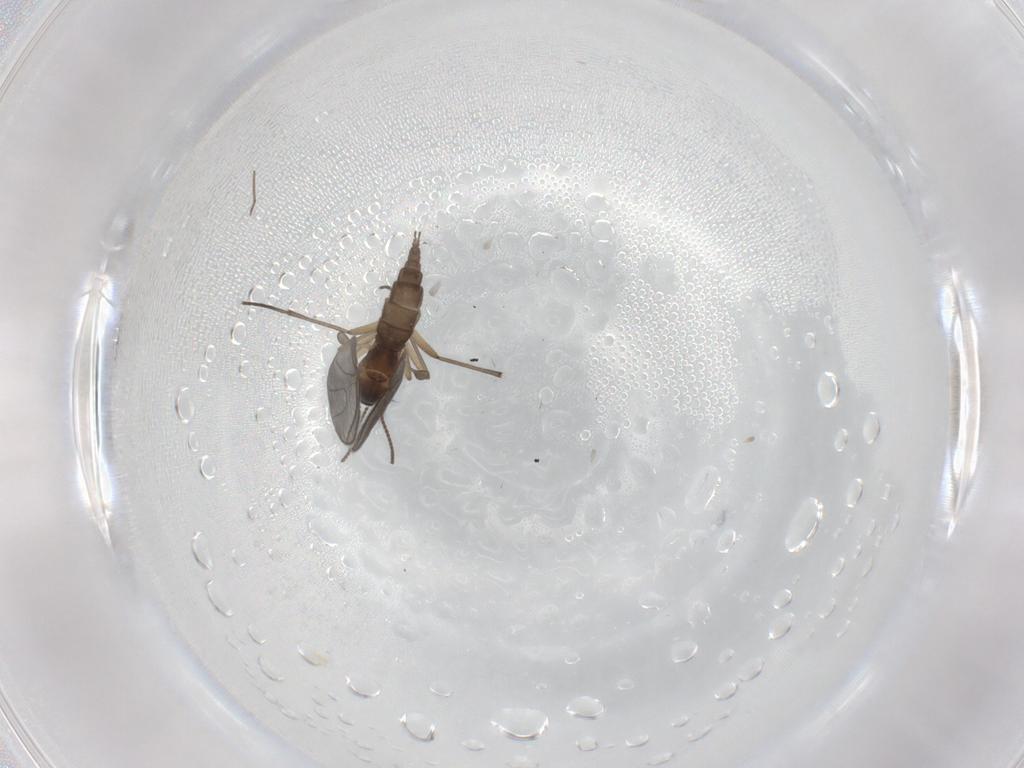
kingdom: Animalia
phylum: Arthropoda
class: Insecta
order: Diptera
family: Sciaridae
